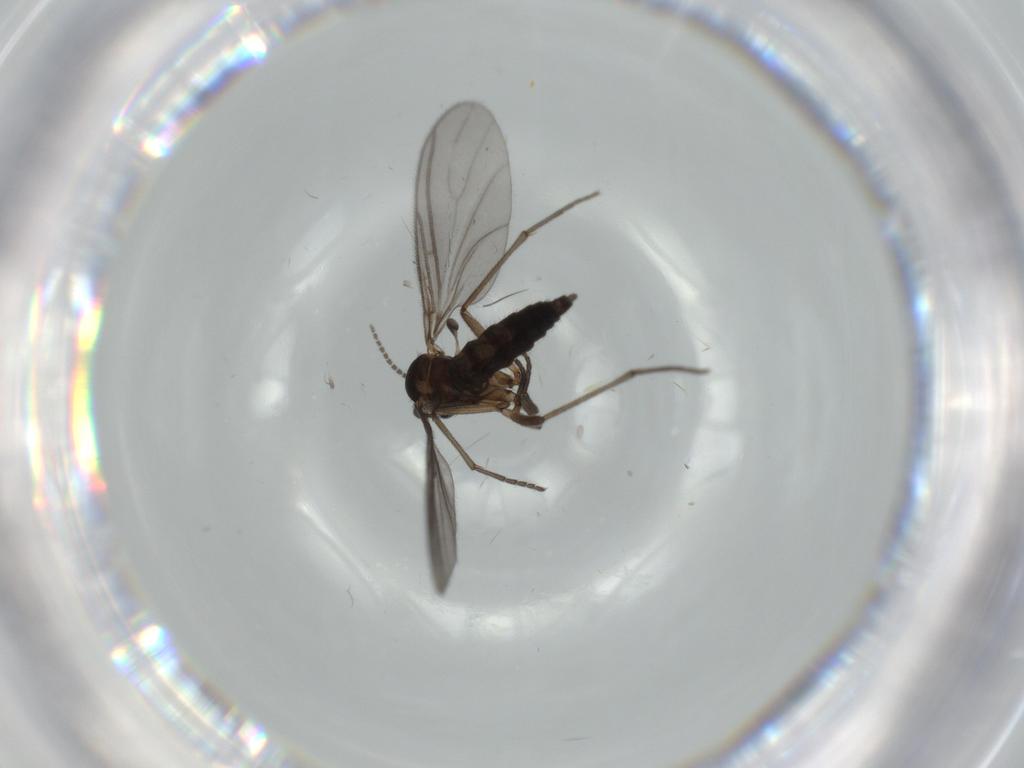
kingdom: Animalia
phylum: Arthropoda
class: Insecta
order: Diptera
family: Sciaridae
